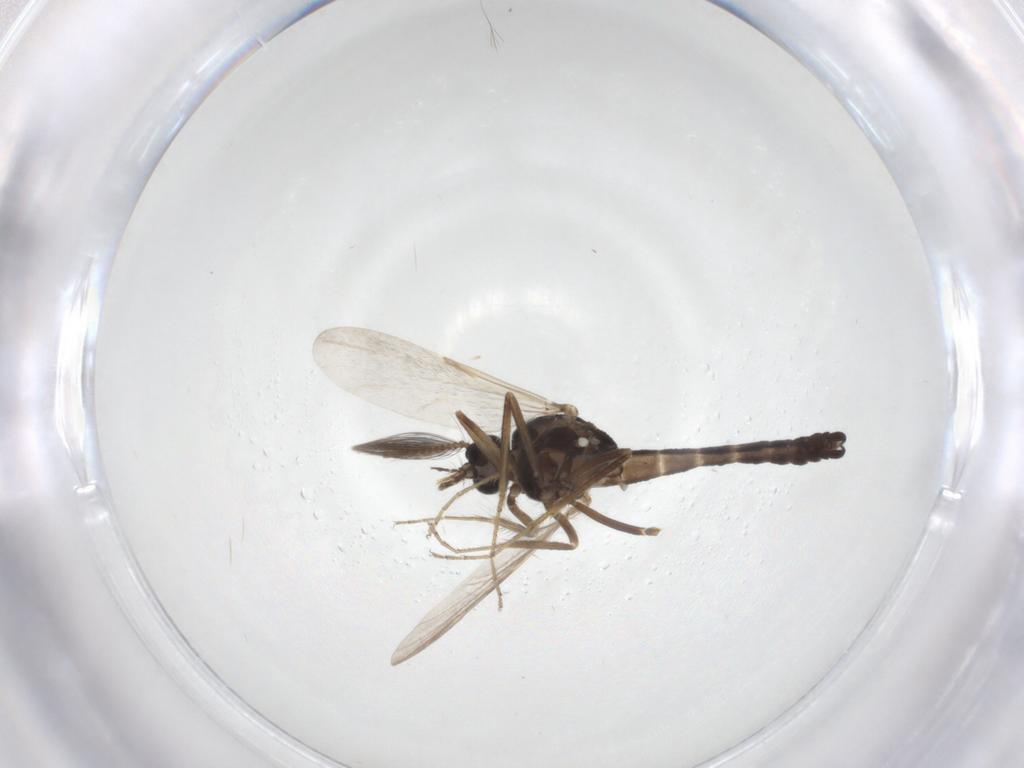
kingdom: Animalia
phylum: Arthropoda
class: Insecta
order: Diptera
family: Ceratopogonidae
